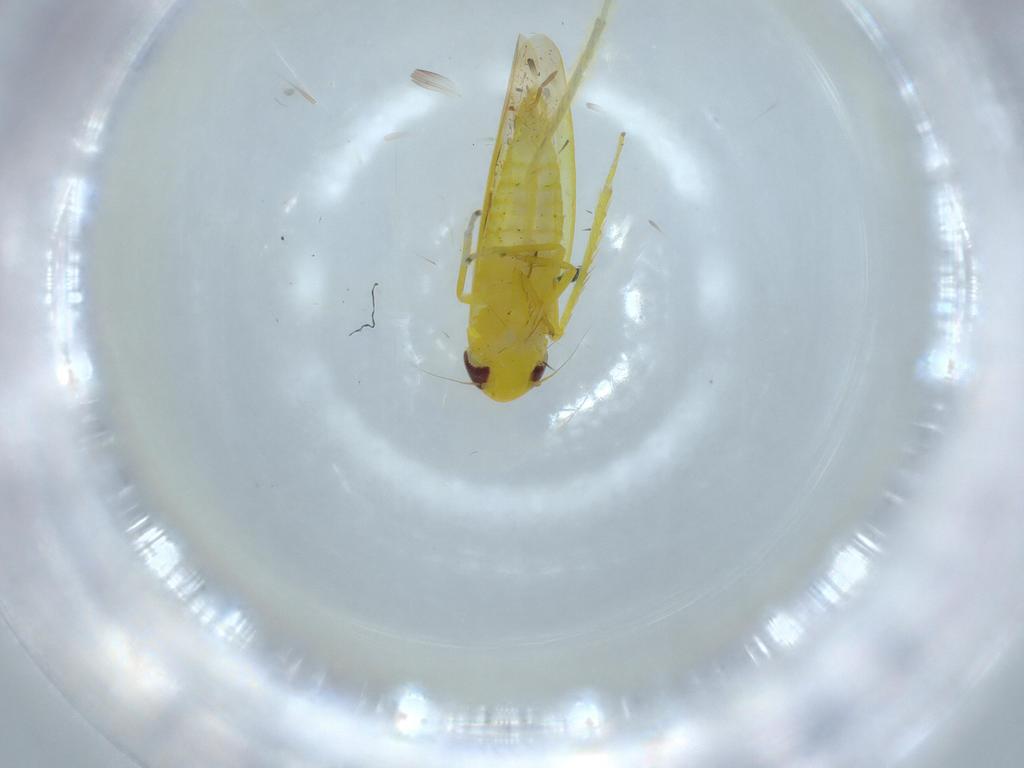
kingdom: Animalia
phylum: Arthropoda
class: Insecta
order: Hemiptera
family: Cicadellidae
